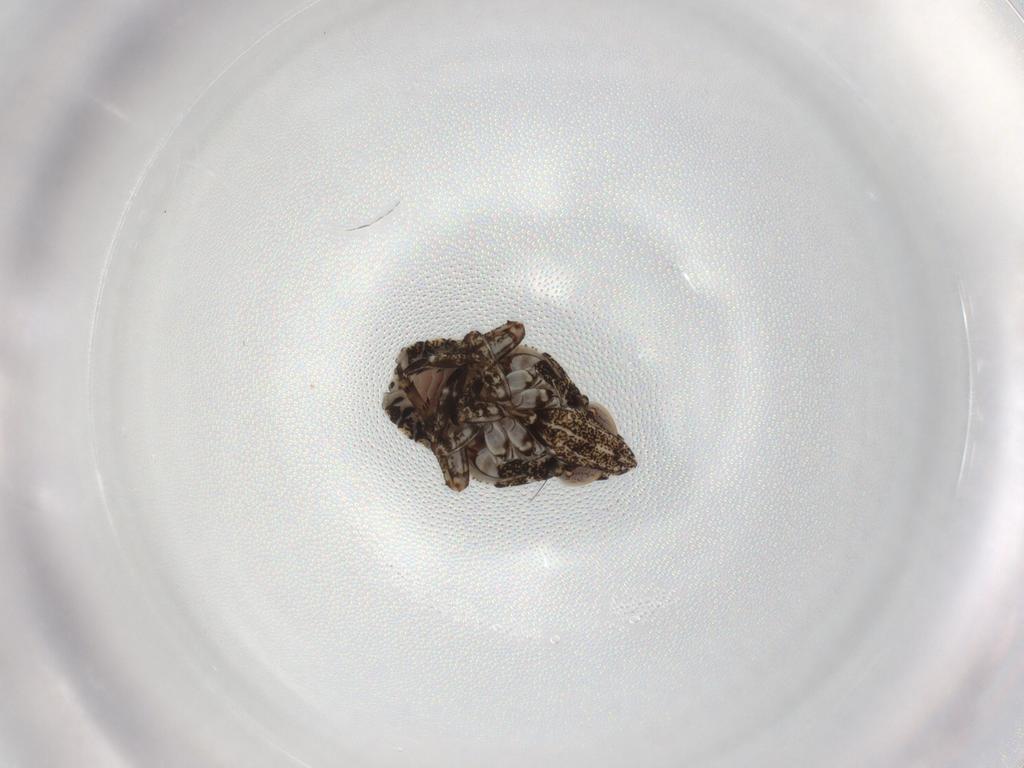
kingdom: Animalia
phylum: Arthropoda
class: Insecta
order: Hemiptera
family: Fulgoroidea_incertae_sedis
